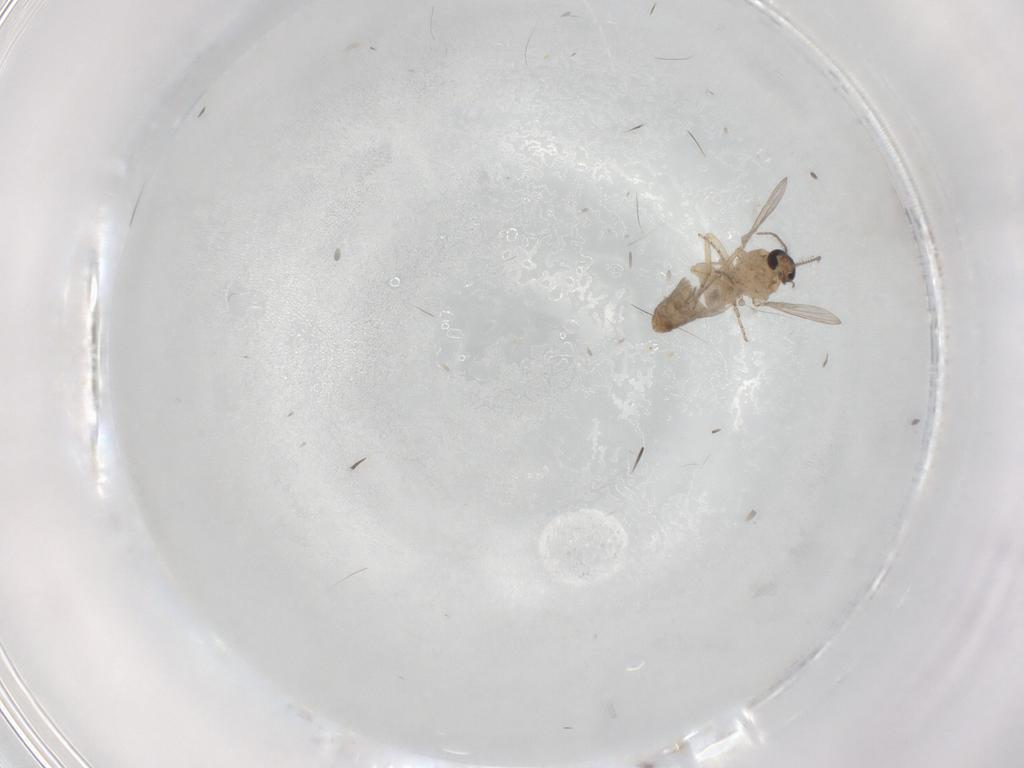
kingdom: Animalia
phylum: Arthropoda
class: Insecta
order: Diptera
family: Ceratopogonidae
